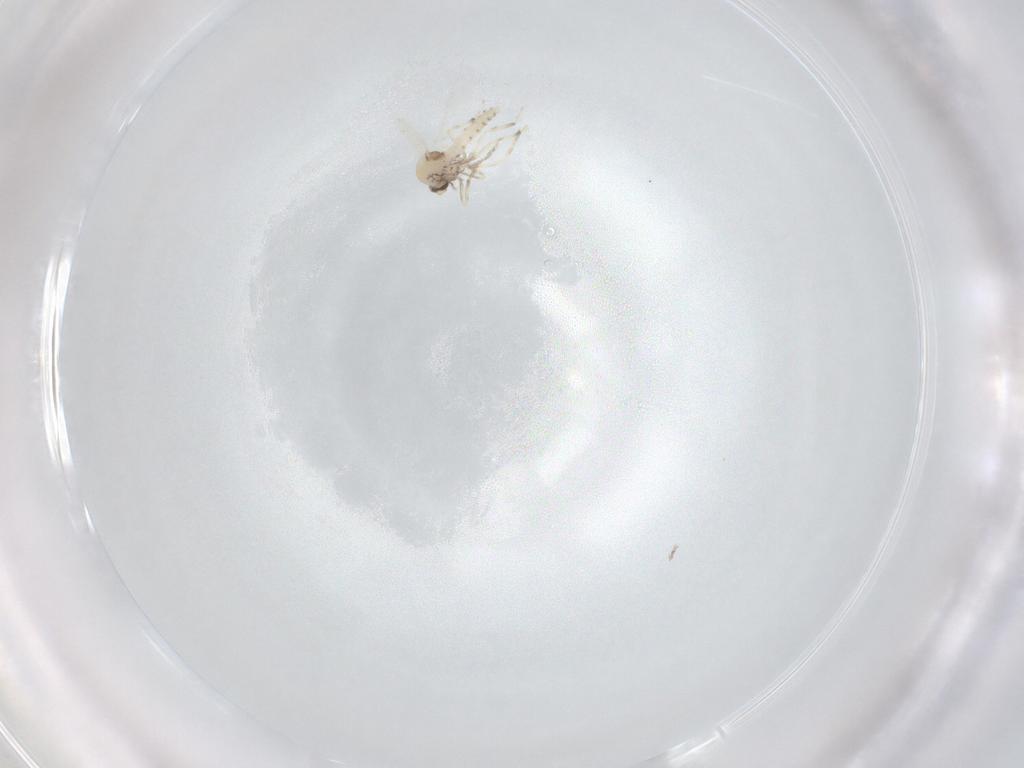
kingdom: Animalia
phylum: Arthropoda
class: Insecta
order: Diptera
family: Ceratopogonidae
